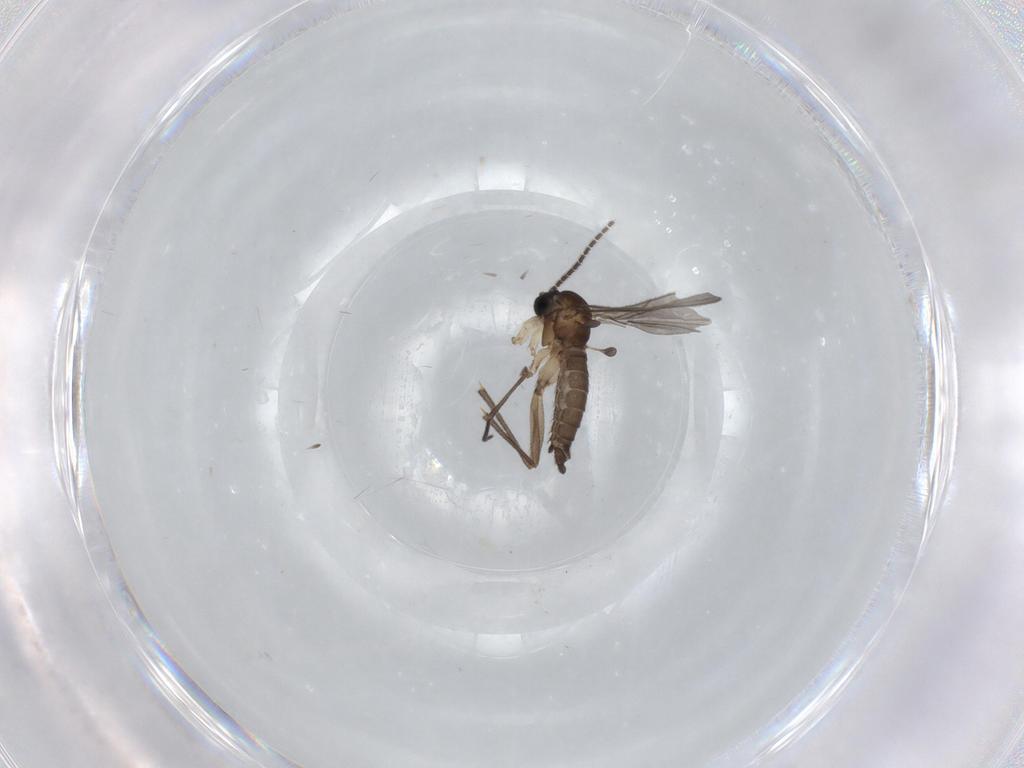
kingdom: Animalia
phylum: Arthropoda
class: Insecta
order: Diptera
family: Sciaridae
